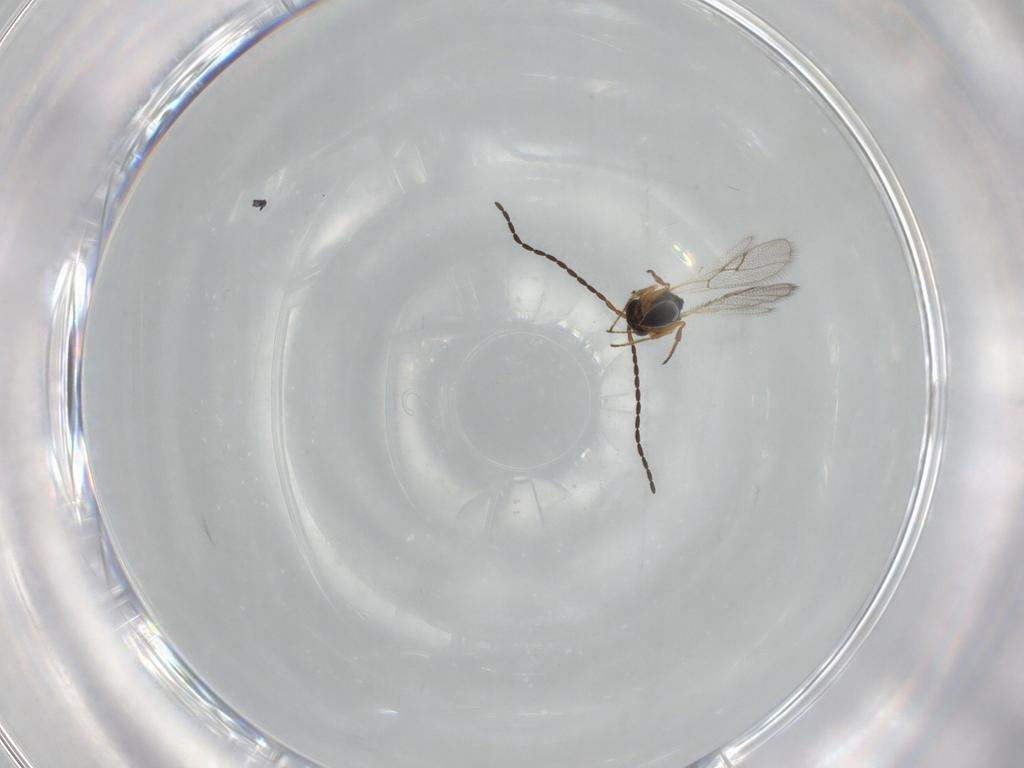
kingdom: Animalia
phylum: Arthropoda
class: Insecta
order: Hymenoptera
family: Figitidae
